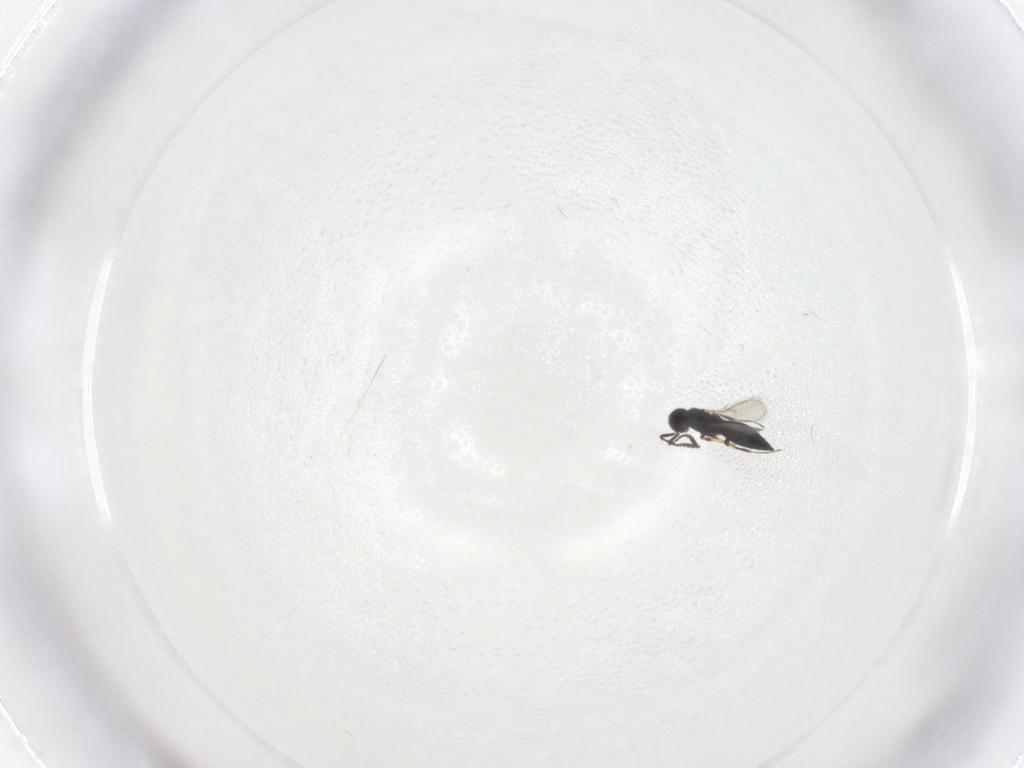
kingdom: Animalia
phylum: Arthropoda
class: Insecta
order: Hymenoptera
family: Scelionidae
